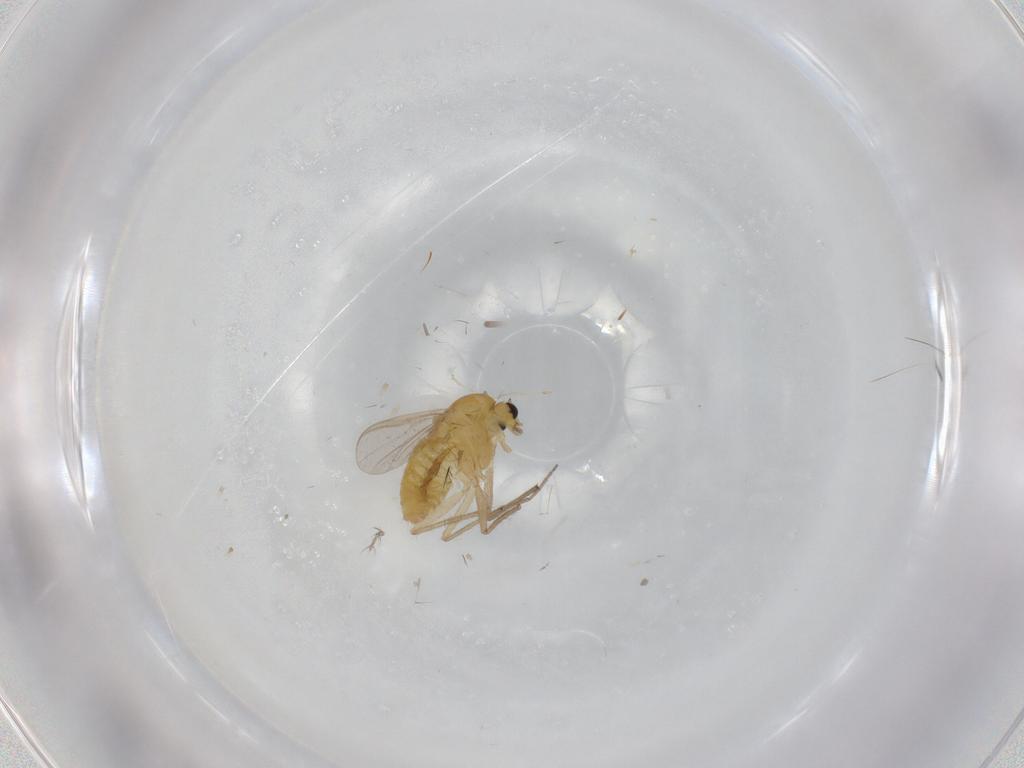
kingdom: Animalia
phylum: Arthropoda
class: Insecta
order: Diptera
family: Cecidomyiidae
